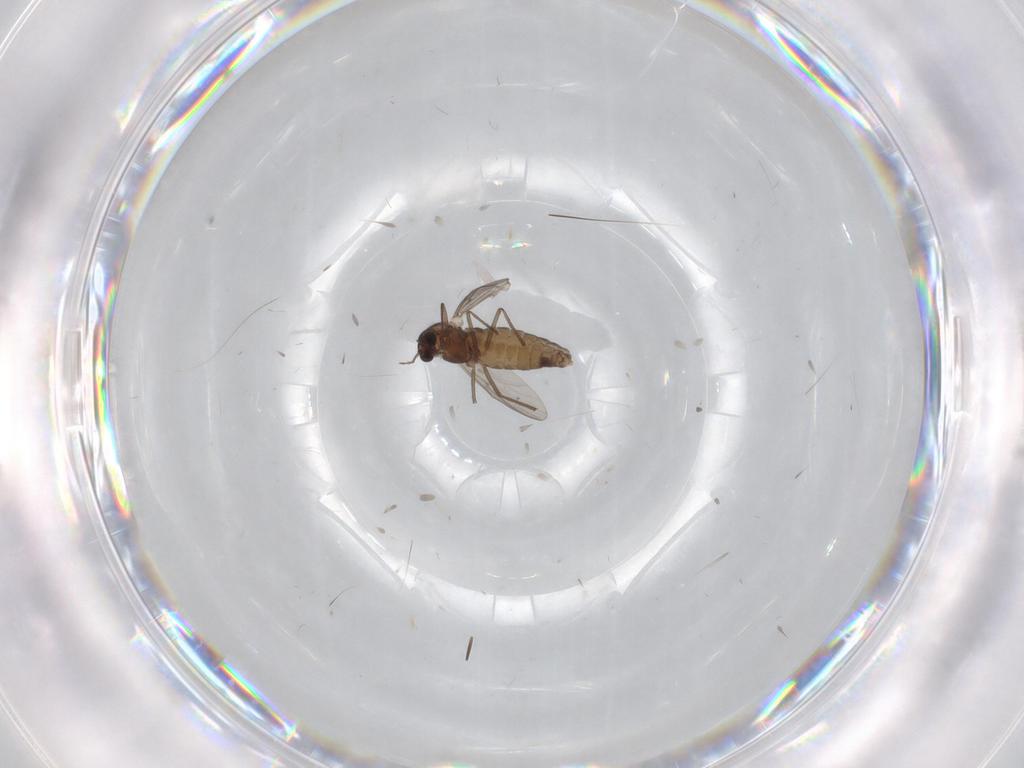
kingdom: Animalia
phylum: Arthropoda
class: Insecta
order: Diptera
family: Chironomidae
